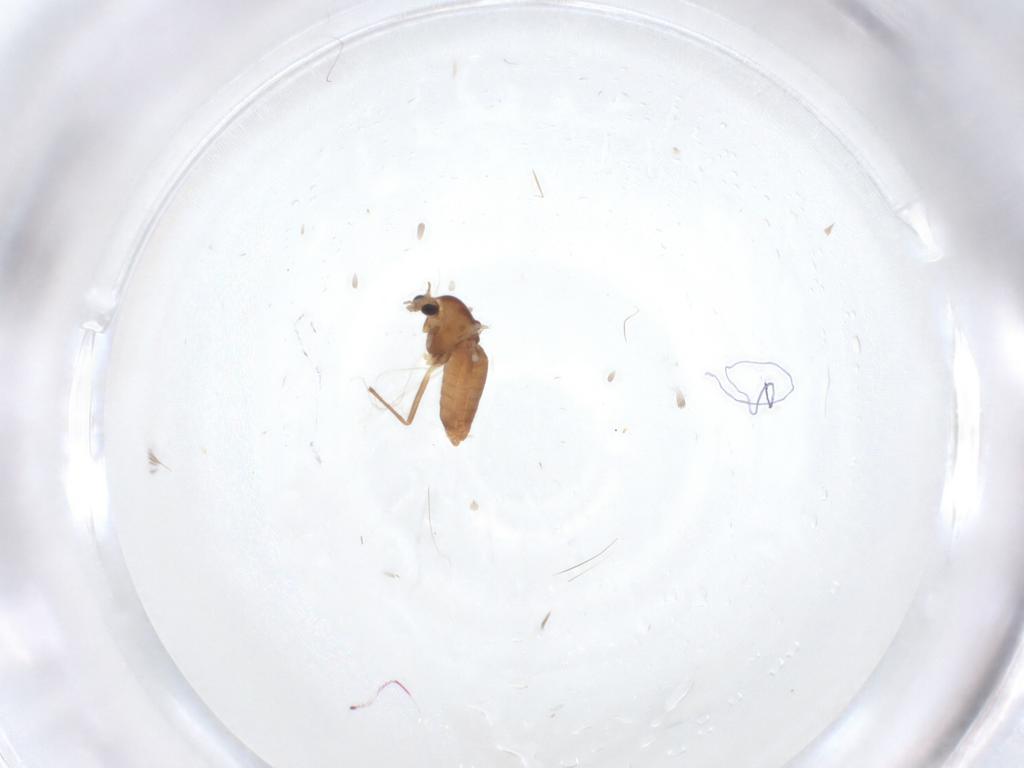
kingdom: Animalia
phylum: Arthropoda
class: Insecta
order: Diptera
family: Chironomidae
